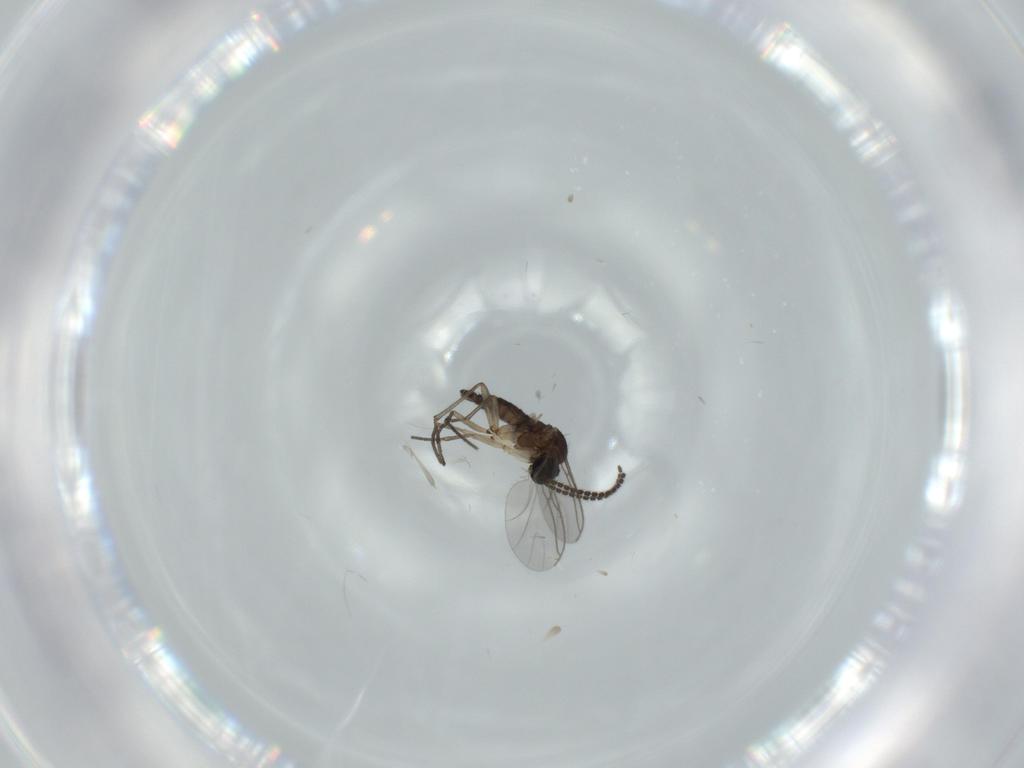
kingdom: Animalia
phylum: Arthropoda
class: Insecta
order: Diptera
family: Sciaridae
